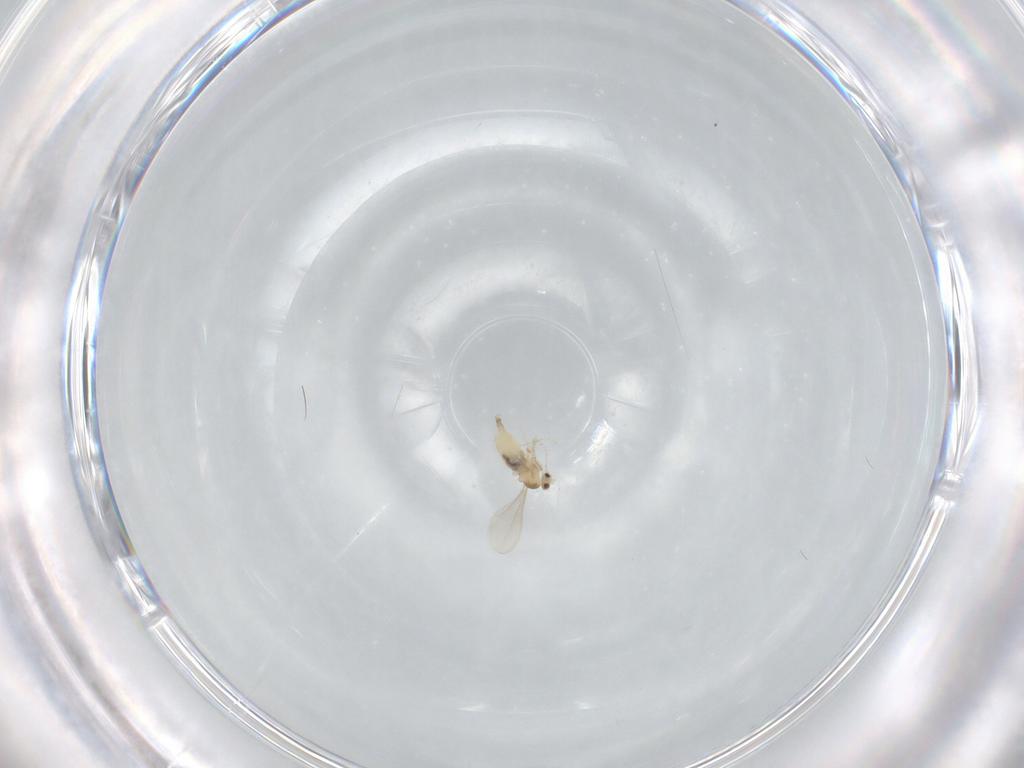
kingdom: Animalia
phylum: Arthropoda
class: Insecta
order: Diptera
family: Cecidomyiidae
